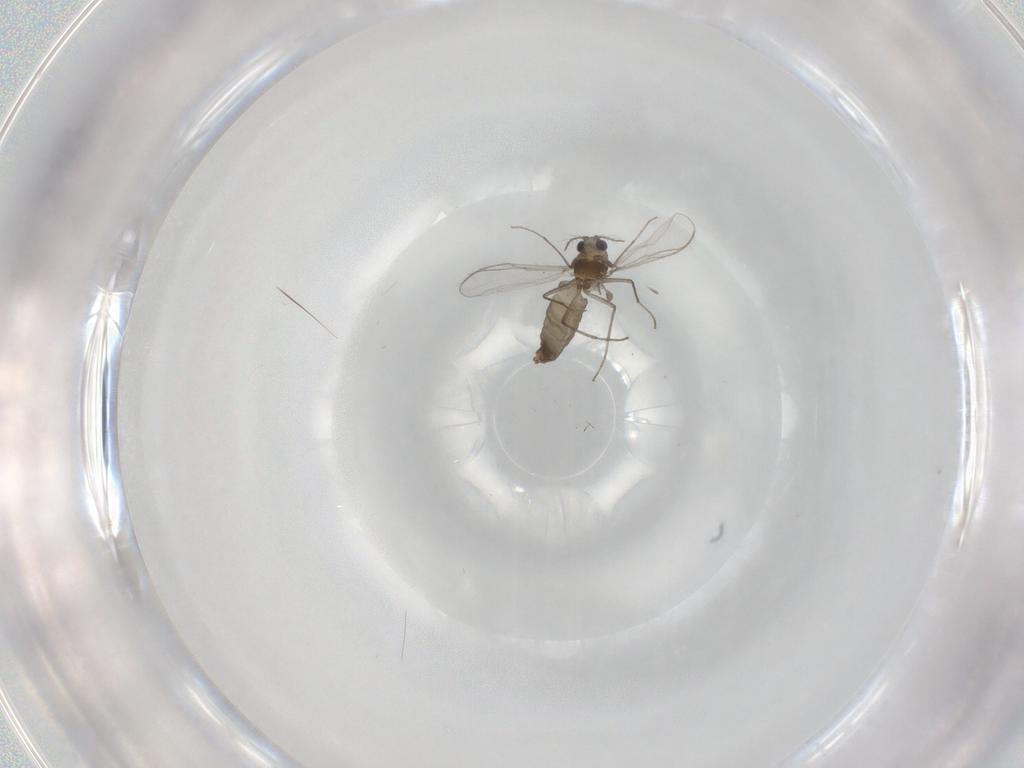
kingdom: Animalia
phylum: Arthropoda
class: Insecta
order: Diptera
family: Chironomidae
